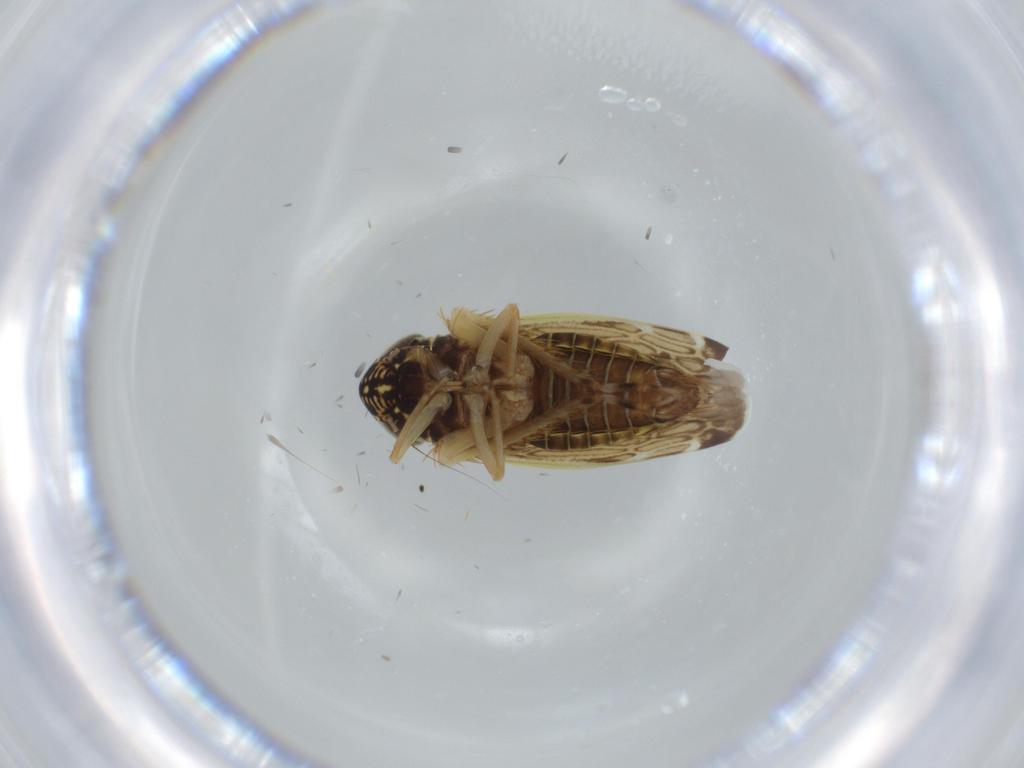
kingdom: Animalia
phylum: Arthropoda
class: Insecta
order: Hemiptera
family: Cicadellidae
